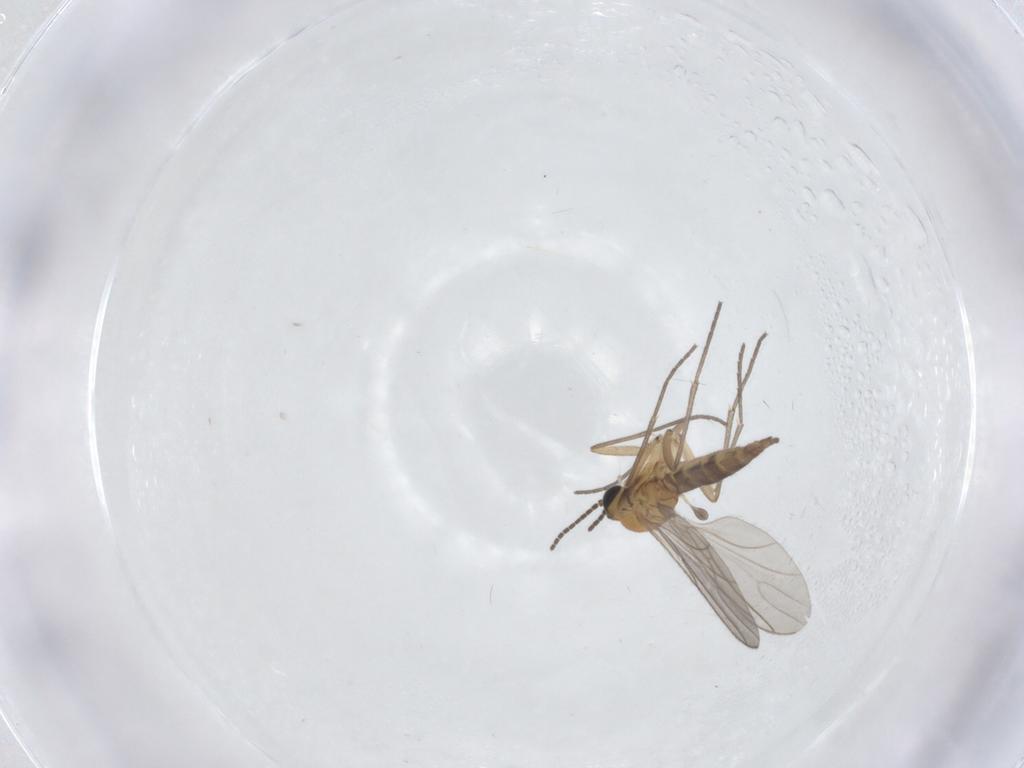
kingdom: Animalia
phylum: Arthropoda
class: Insecta
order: Diptera
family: Sciaridae
